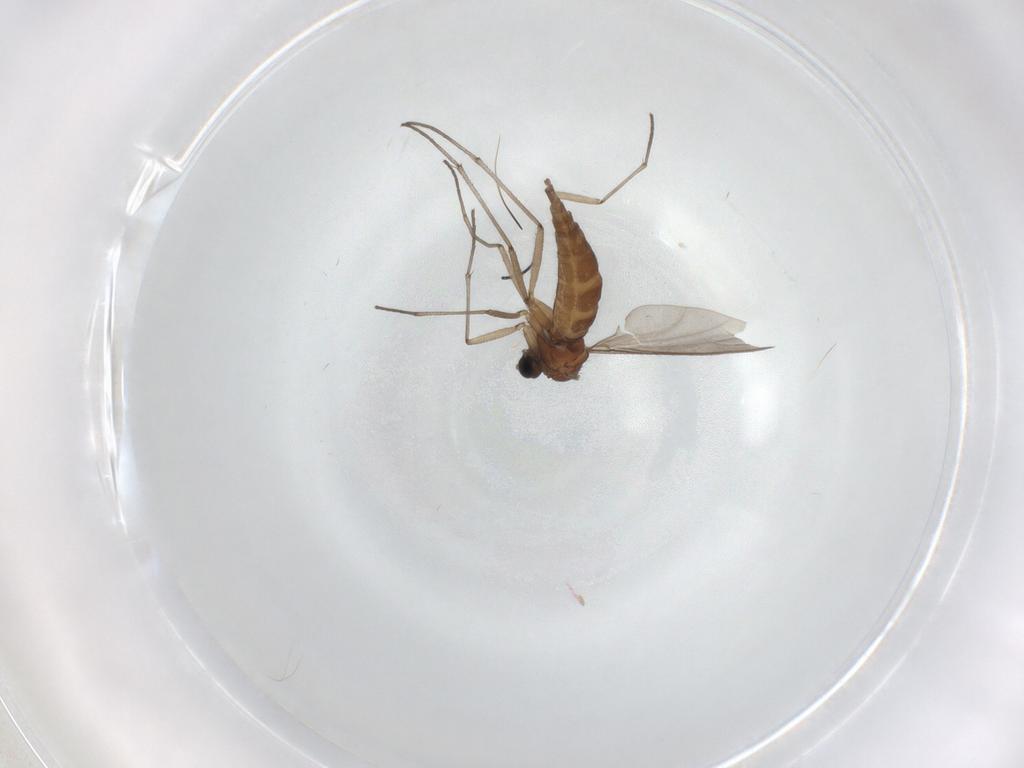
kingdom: Animalia
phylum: Arthropoda
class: Insecta
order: Diptera
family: Sciaridae
